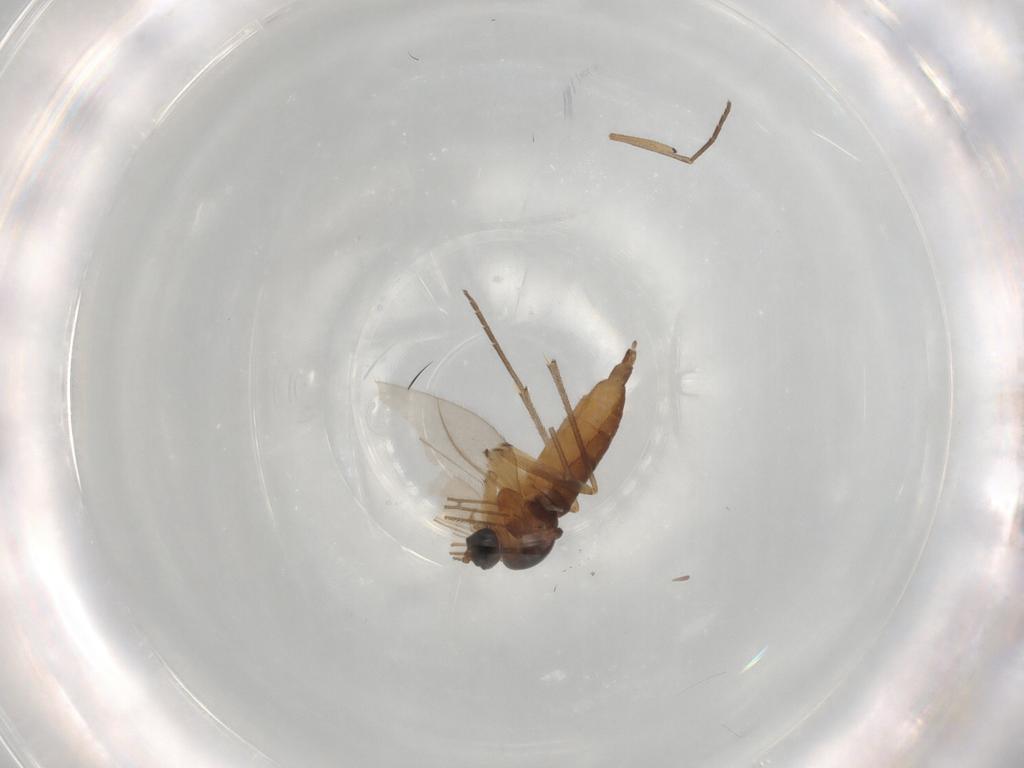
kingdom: Animalia
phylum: Arthropoda
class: Insecta
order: Diptera
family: Sciaridae
